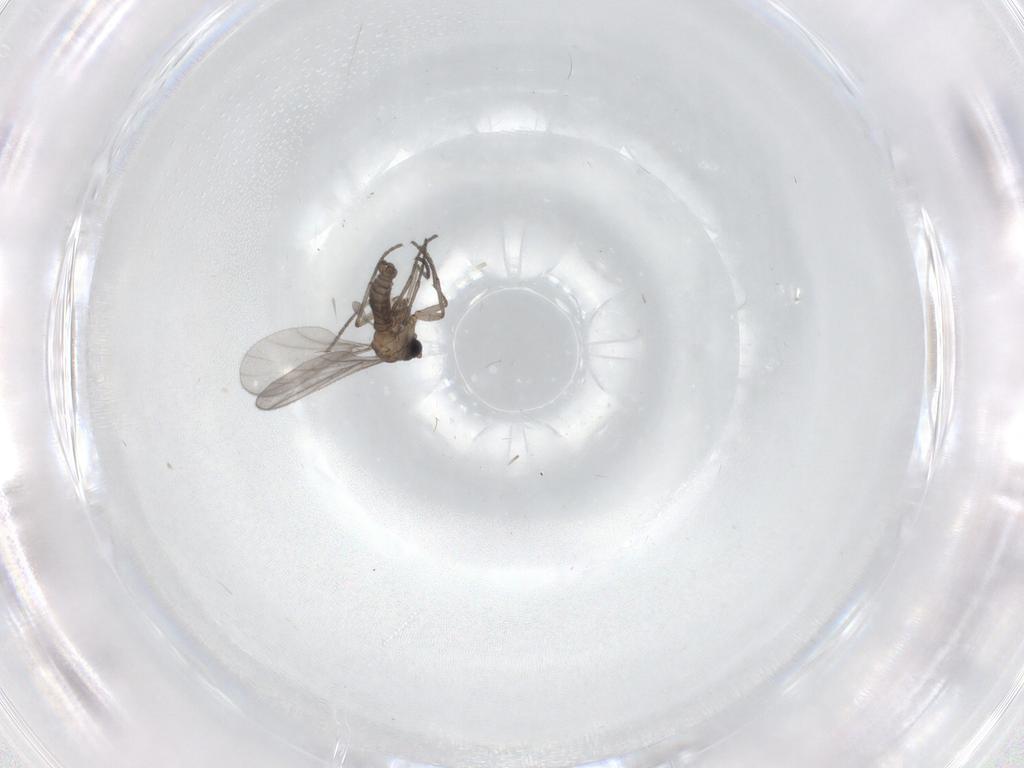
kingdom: Animalia
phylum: Arthropoda
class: Insecta
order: Diptera
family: Sciaridae
